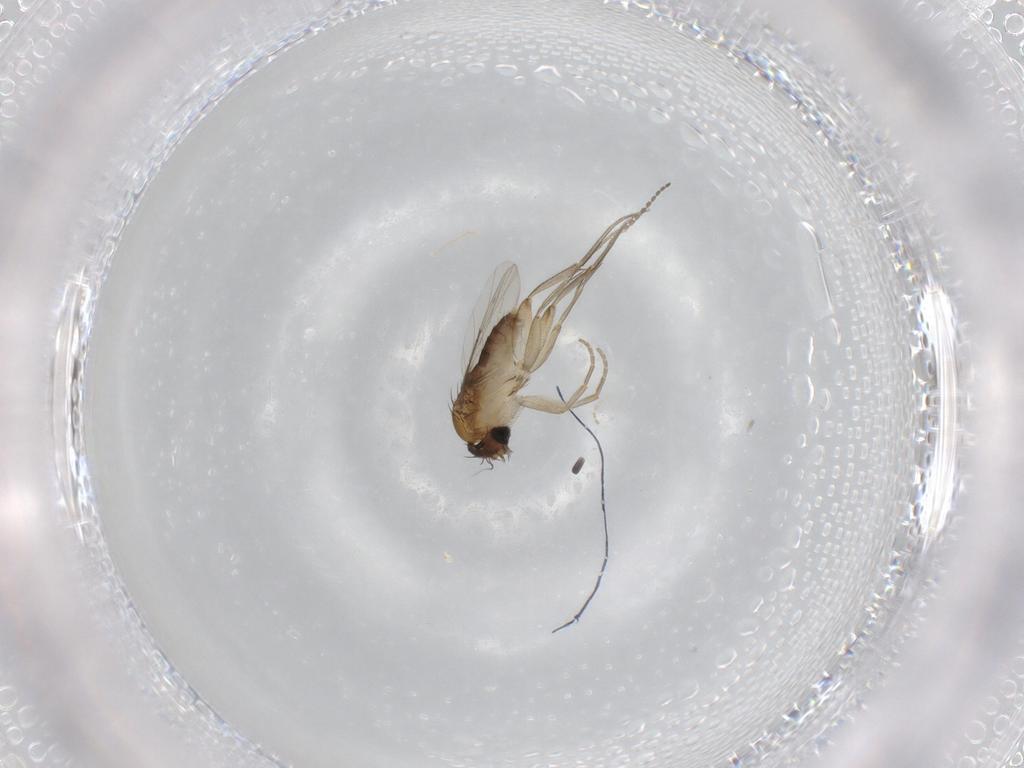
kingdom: Animalia
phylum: Arthropoda
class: Insecta
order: Diptera
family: Phoridae
